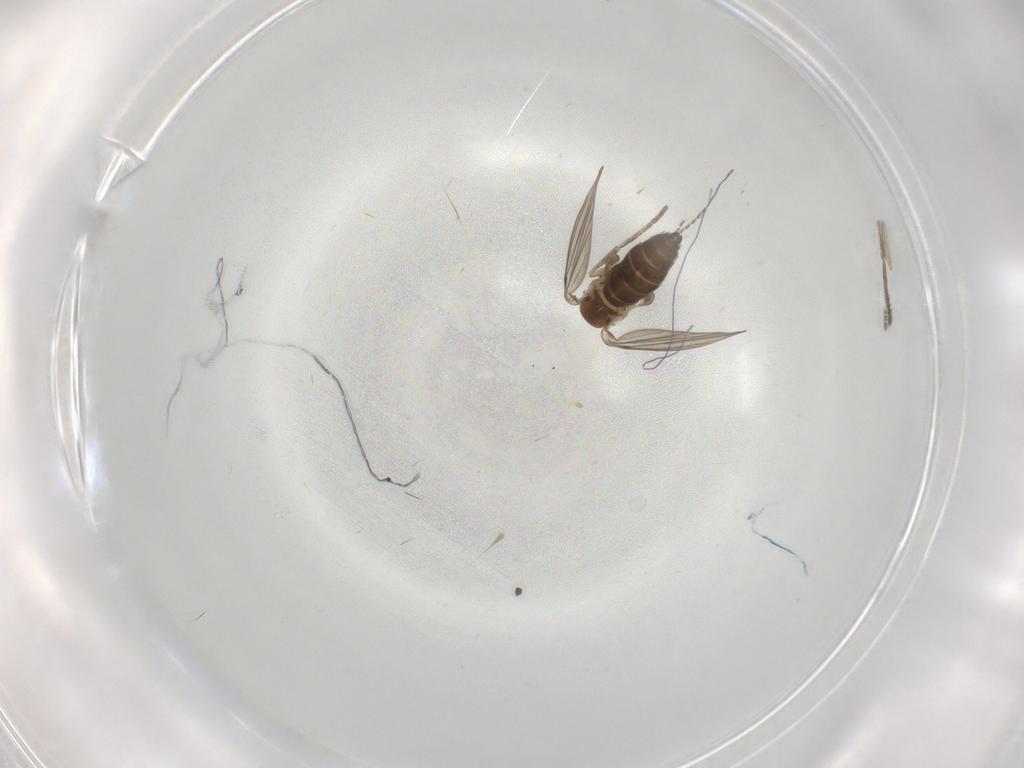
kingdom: Animalia
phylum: Arthropoda
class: Insecta
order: Diptera
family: Psychodidae
